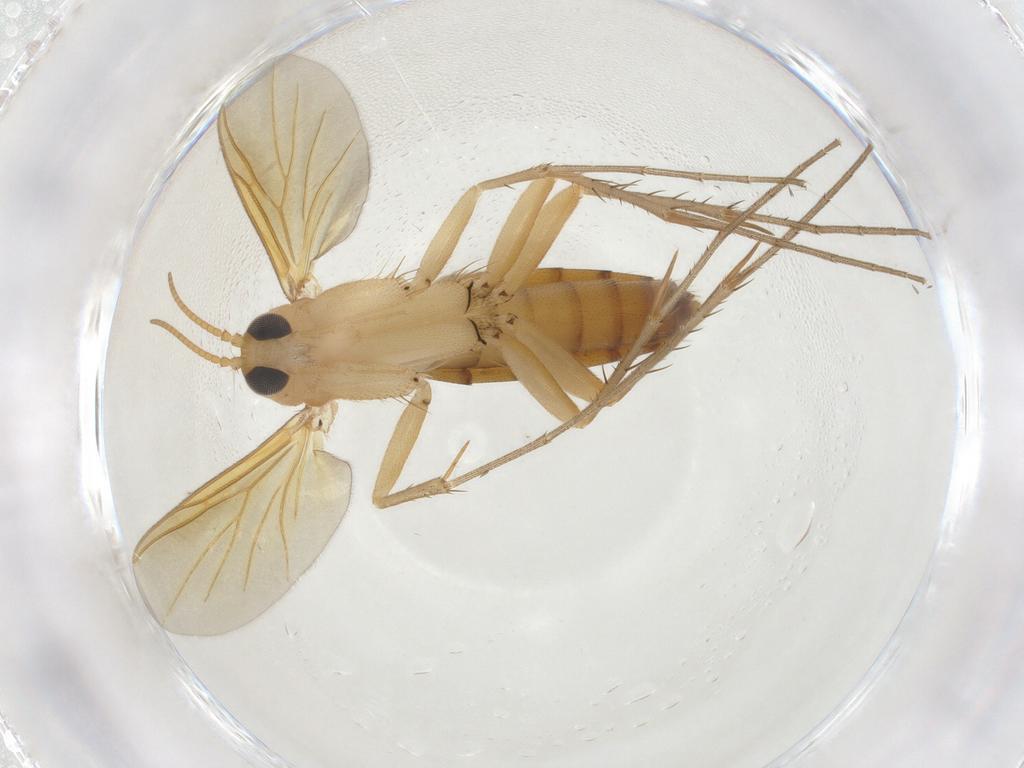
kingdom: Animalia
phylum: Arthropoda
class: Insecta
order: Diptera
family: Mycetophilidae
